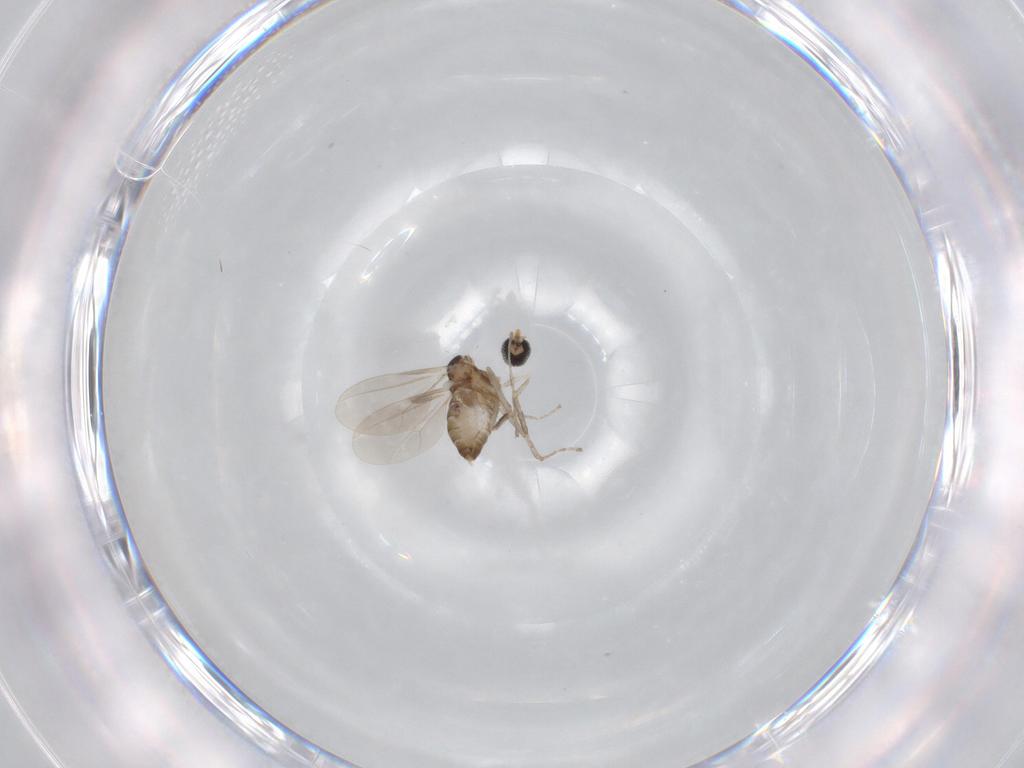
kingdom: Animalia
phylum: Arthropoda
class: Insecta
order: Diptera
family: Cecidomyiidae
